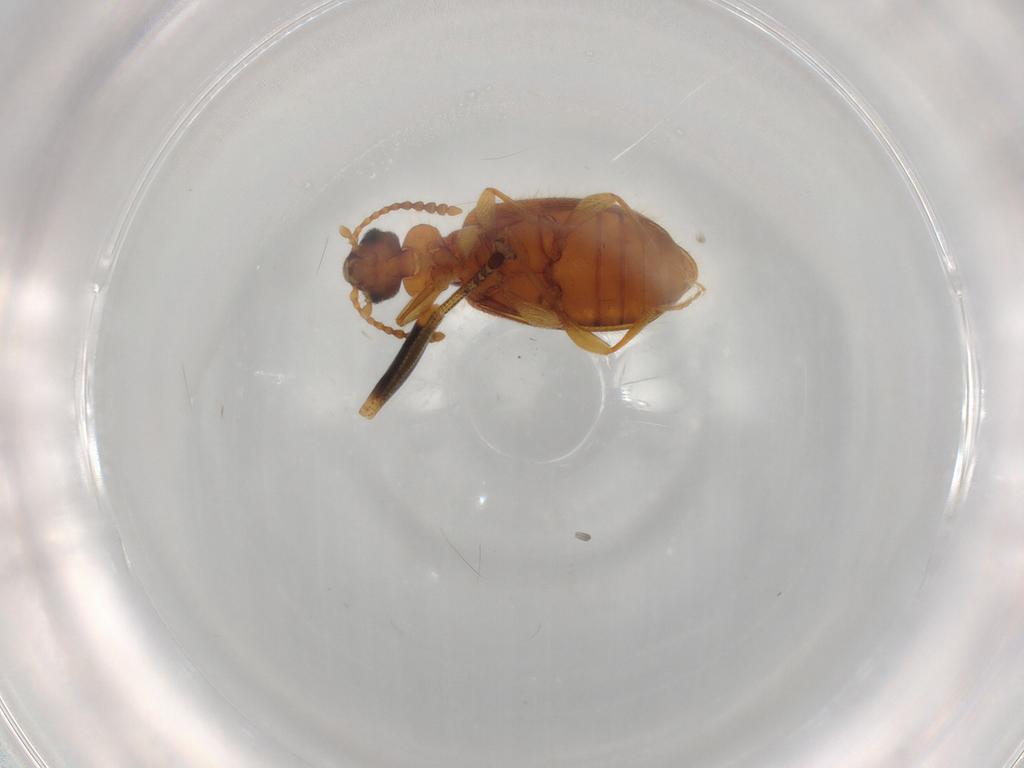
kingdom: Animalia
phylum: Arthropoda
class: Insecta
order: Coleoptera
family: Anthicidae
